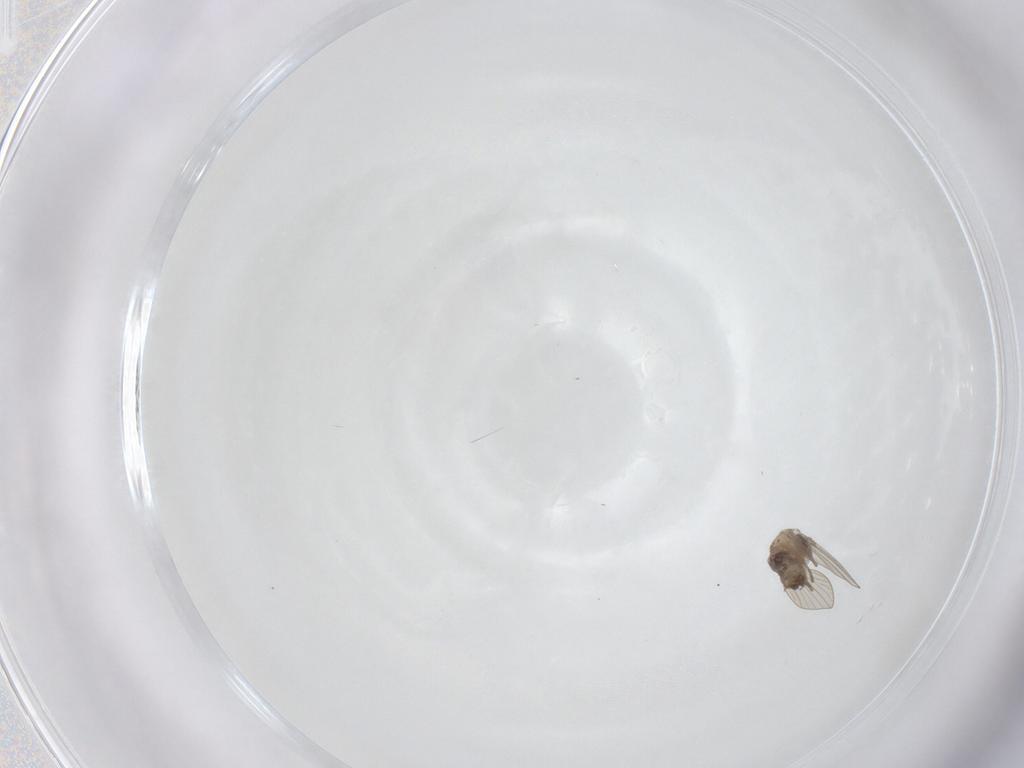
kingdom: Animalia
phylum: Arthropoda
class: Insecta
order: Diptera
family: Psychodidae
